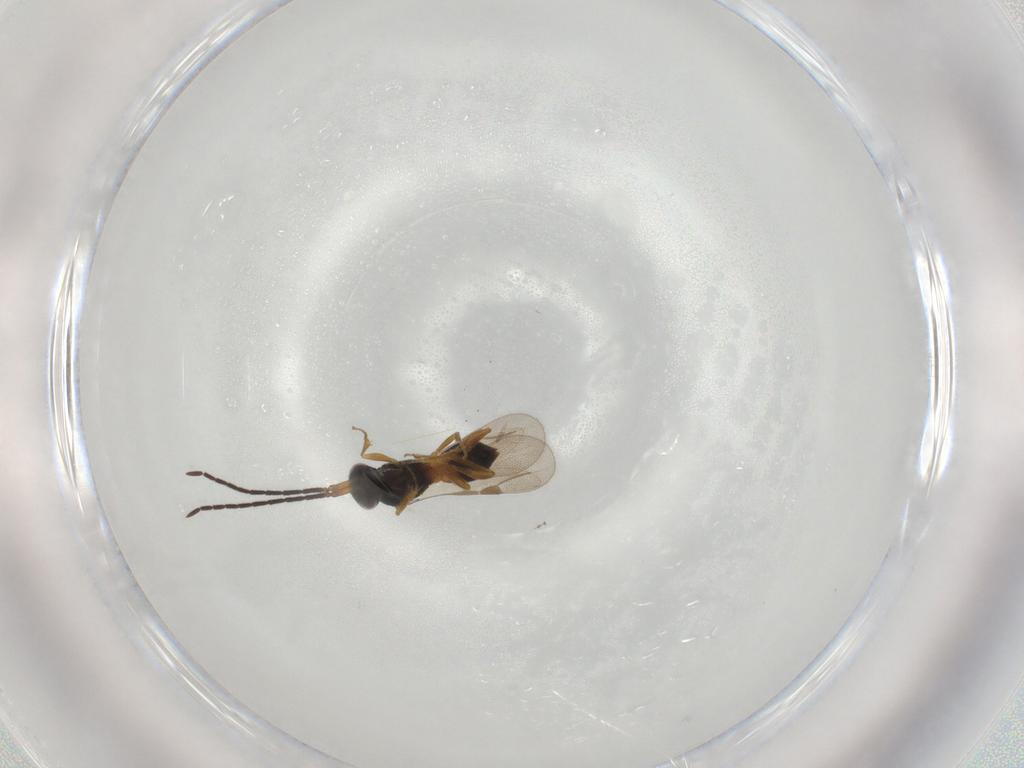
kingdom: Animalia
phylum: Arthropoda
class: Insecta
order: Hymenoptera
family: Megaspilidae
